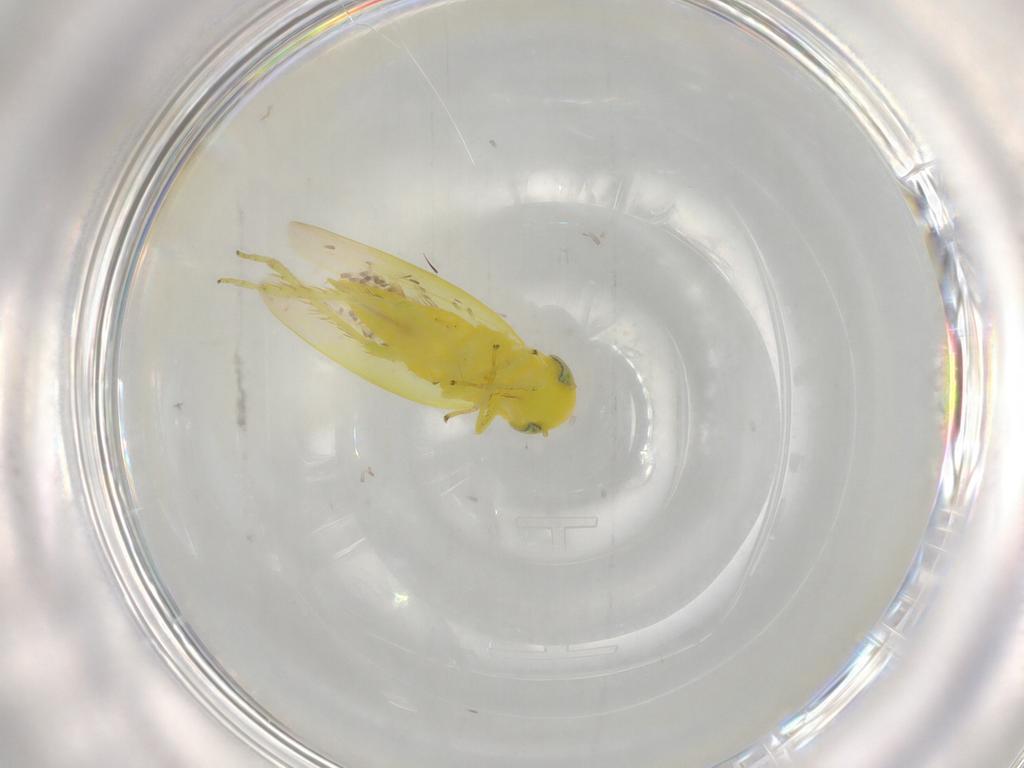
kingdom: Animalia
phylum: Arthropoda
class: Insecta
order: Hemiptera
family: Cicadellidae
